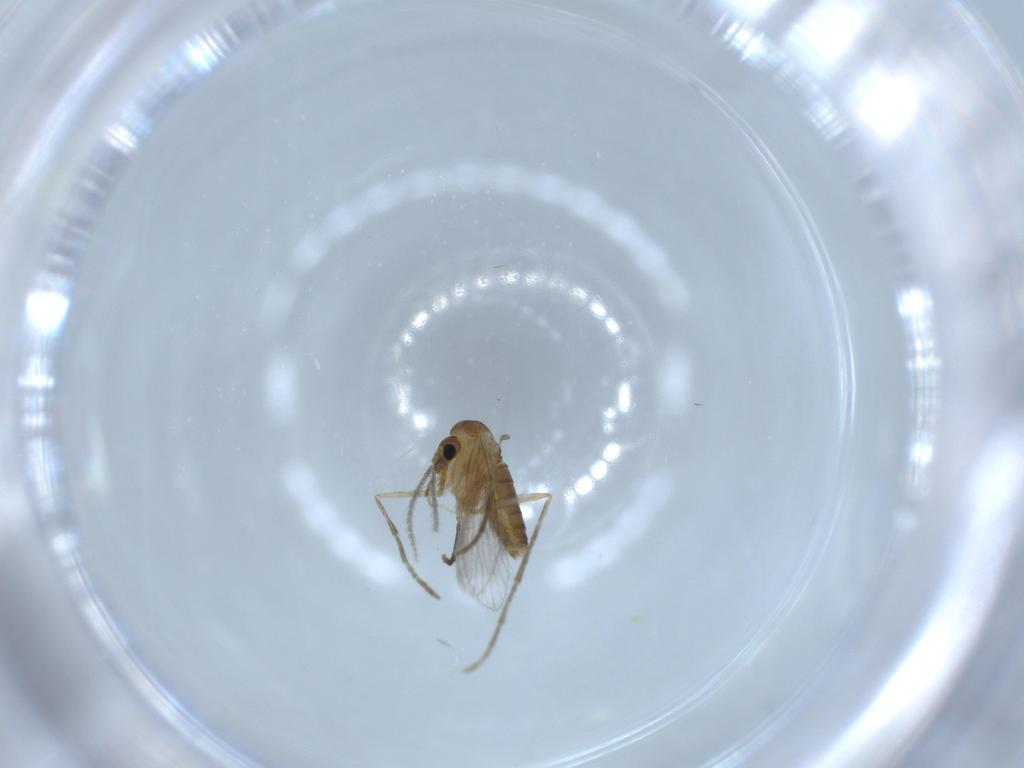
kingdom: Animalia
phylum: Arthropoda
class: Insecta
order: Diptera
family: Psychodidae
